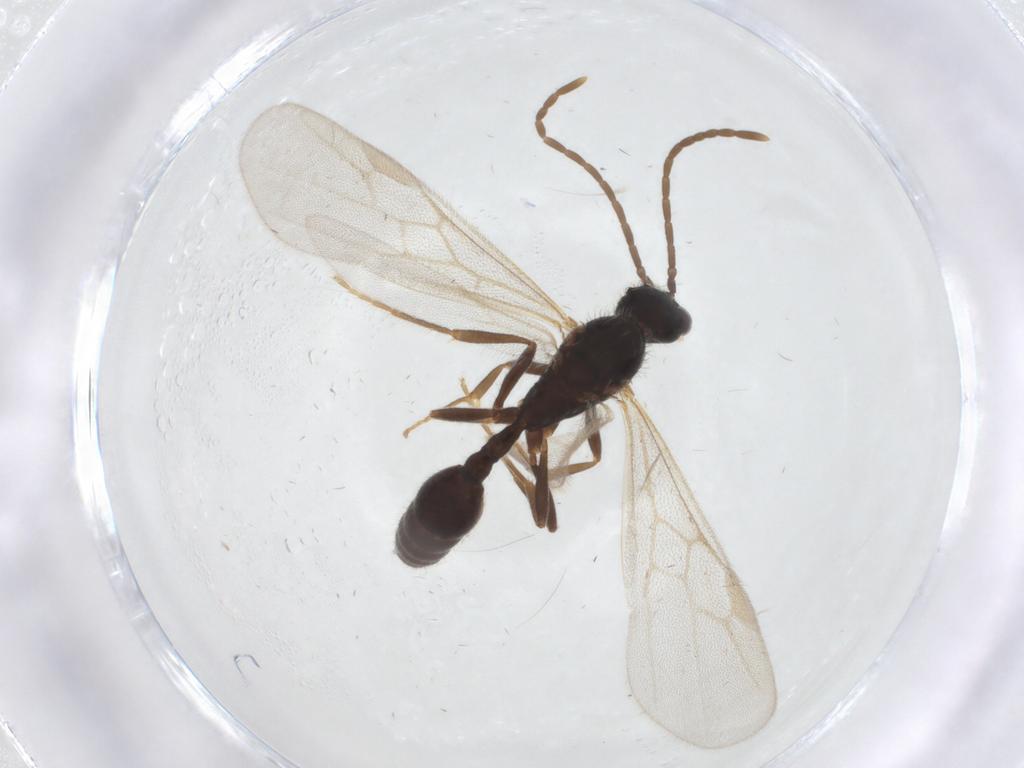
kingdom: Animalia
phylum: Arthropoda
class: Insecta
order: Hymenoptera
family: Formicidae
